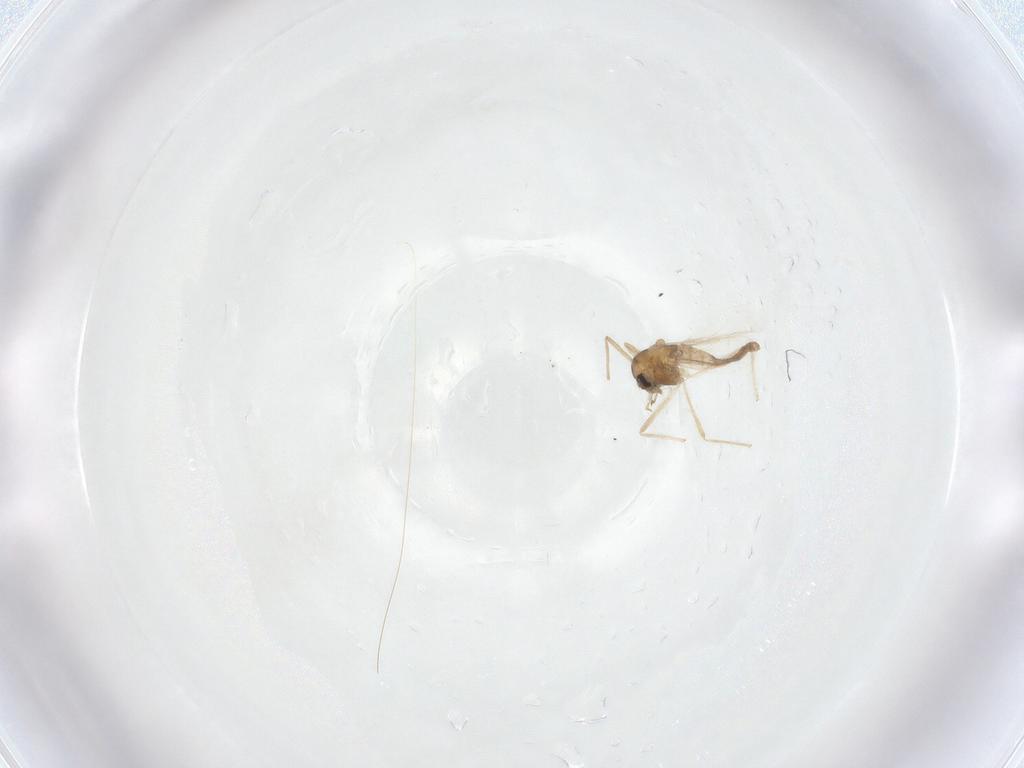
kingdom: Animalia
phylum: Arthropoda
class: Insecta
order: Diptera
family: Chironomidae
